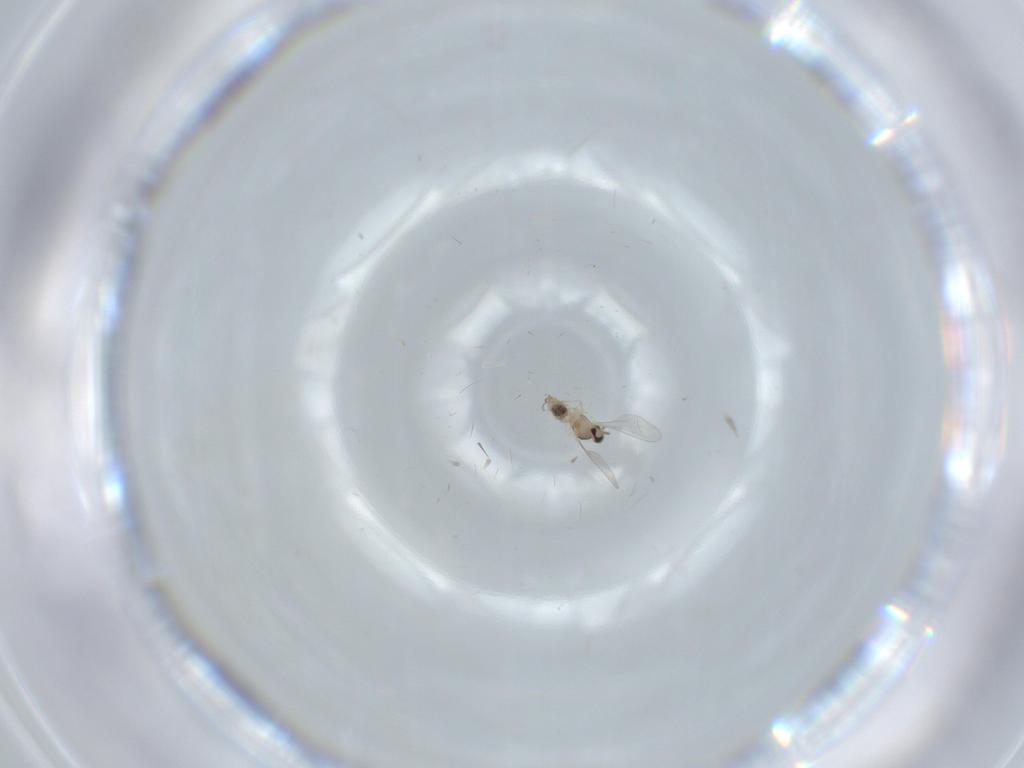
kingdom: Animalia
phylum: Arthropoda
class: Insecta
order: Diptera
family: Cecidomyiidae
